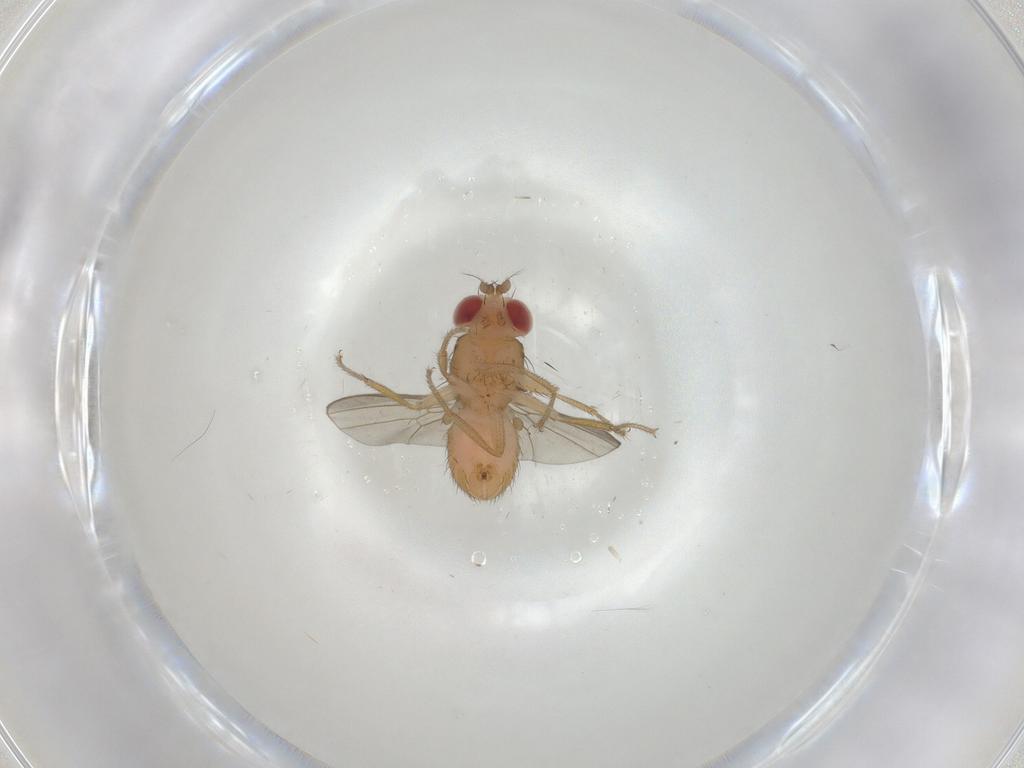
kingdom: Animalia
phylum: Arthropoda
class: Insecta
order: Diptera
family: Drosophilidae
